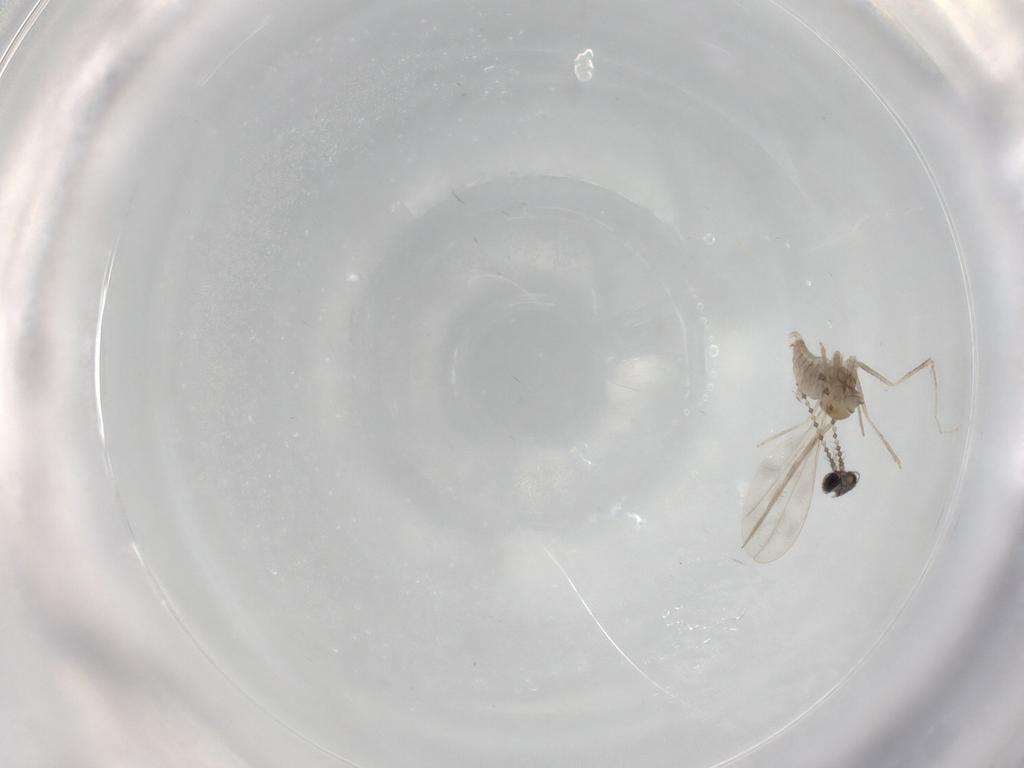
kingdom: Animalia
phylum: Arthropoda
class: Insecta
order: Diptera
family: Cecidomyiidae
